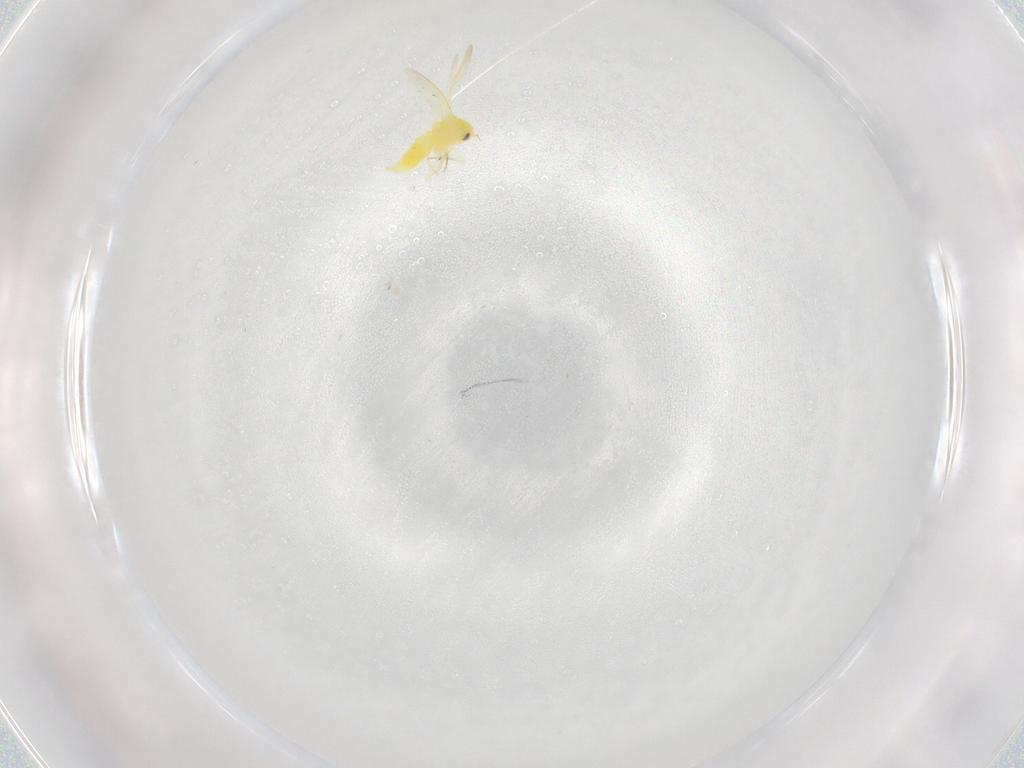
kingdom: Animalia
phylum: Arthropoda
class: Insecta
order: Hemiptera
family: Aleyrodidae
